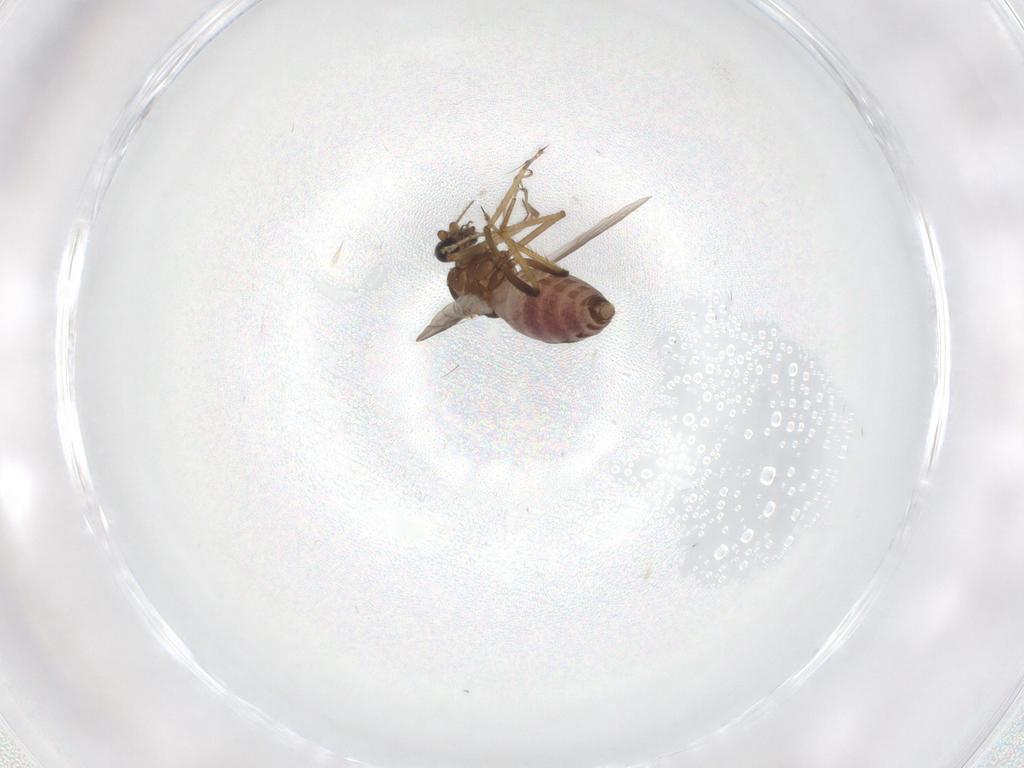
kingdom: Animalia
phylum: Arthropoda
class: Insecta
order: Diptera
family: Ceratopogonidae
